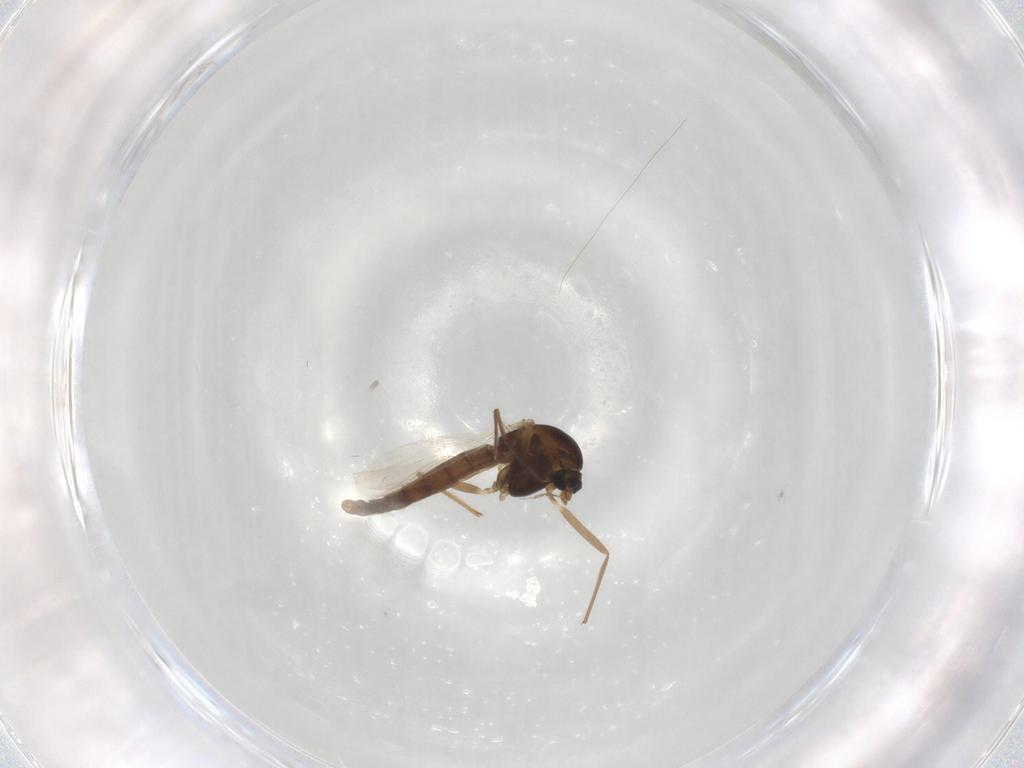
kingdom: Animalia
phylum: Arthropoda
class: Insecta
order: Diptera
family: Chironomidae
